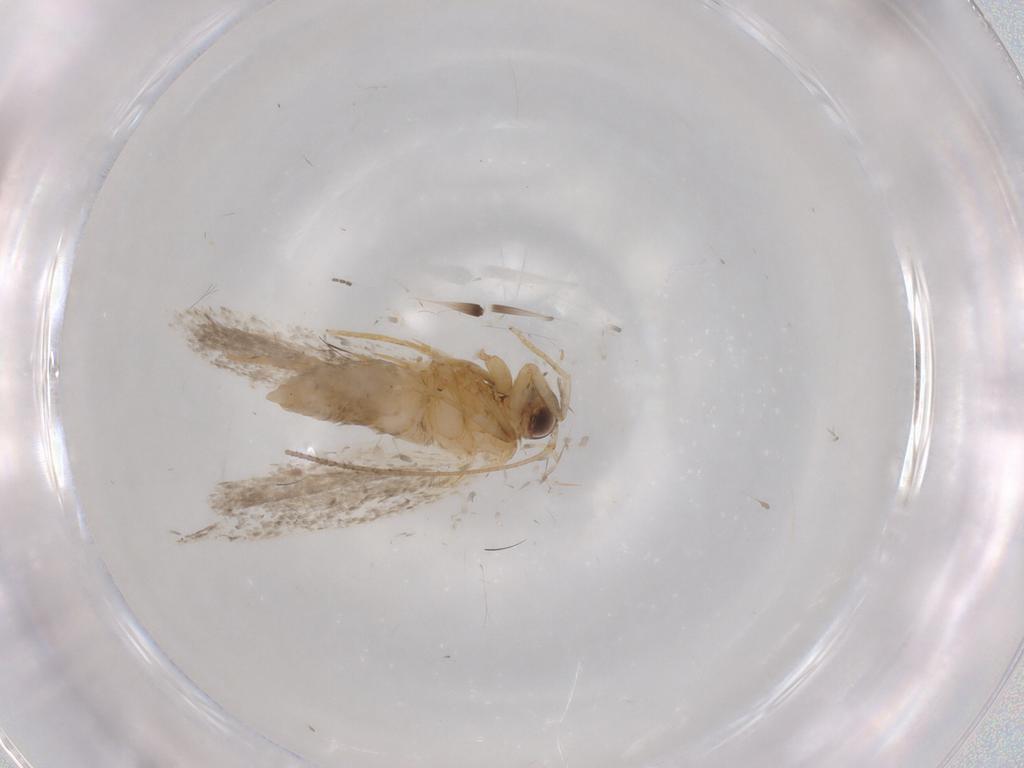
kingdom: Animalia
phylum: Arthropoda
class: Insecta
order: Lepidoptera
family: Autostichidae
